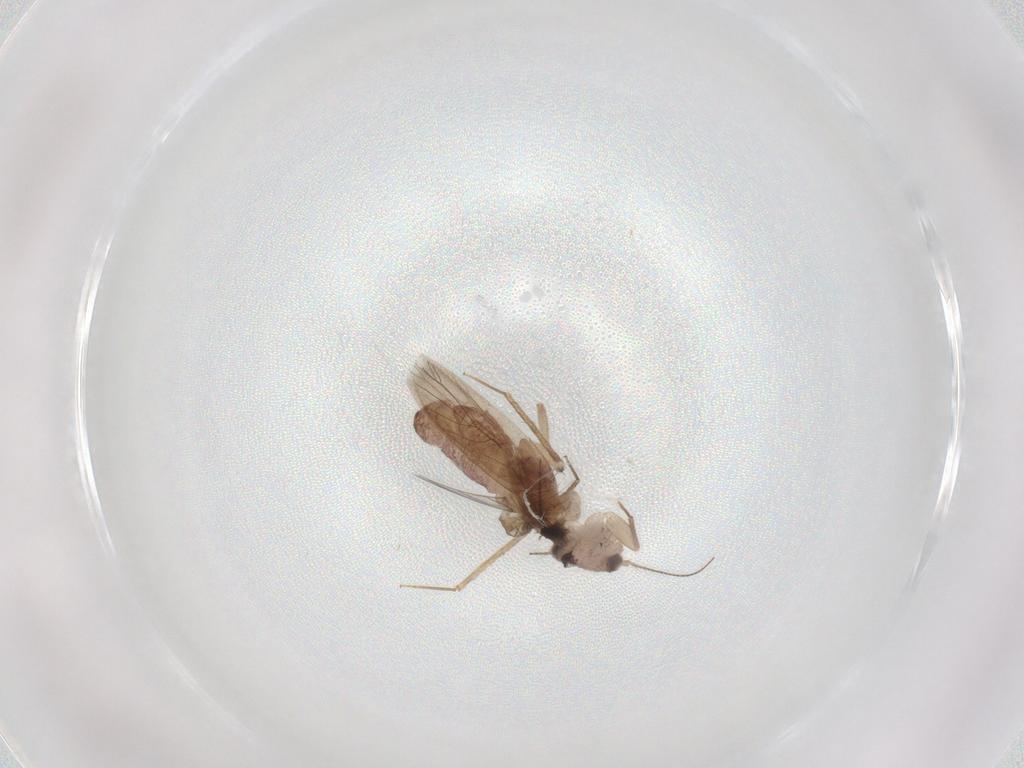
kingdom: Animalia
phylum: Arthropoda
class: Insecta
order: Psocodea
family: Lepidopsocidae
